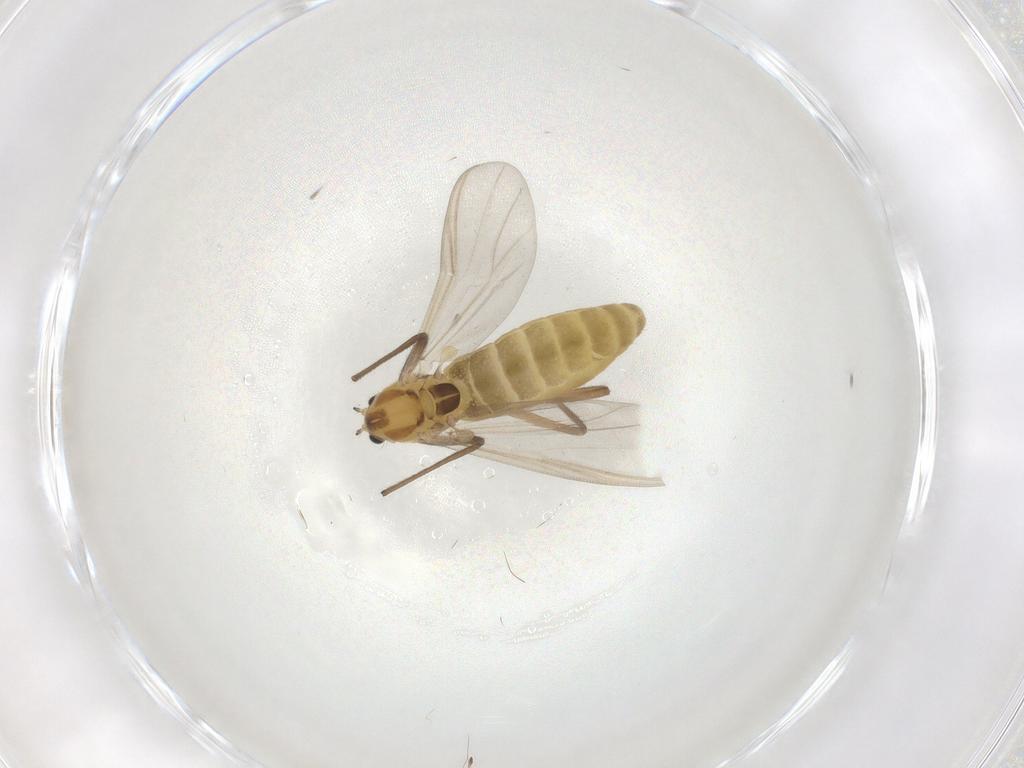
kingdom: Animalia
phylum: Arthropoda
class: Insecta
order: Diptera
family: Chironomidae
